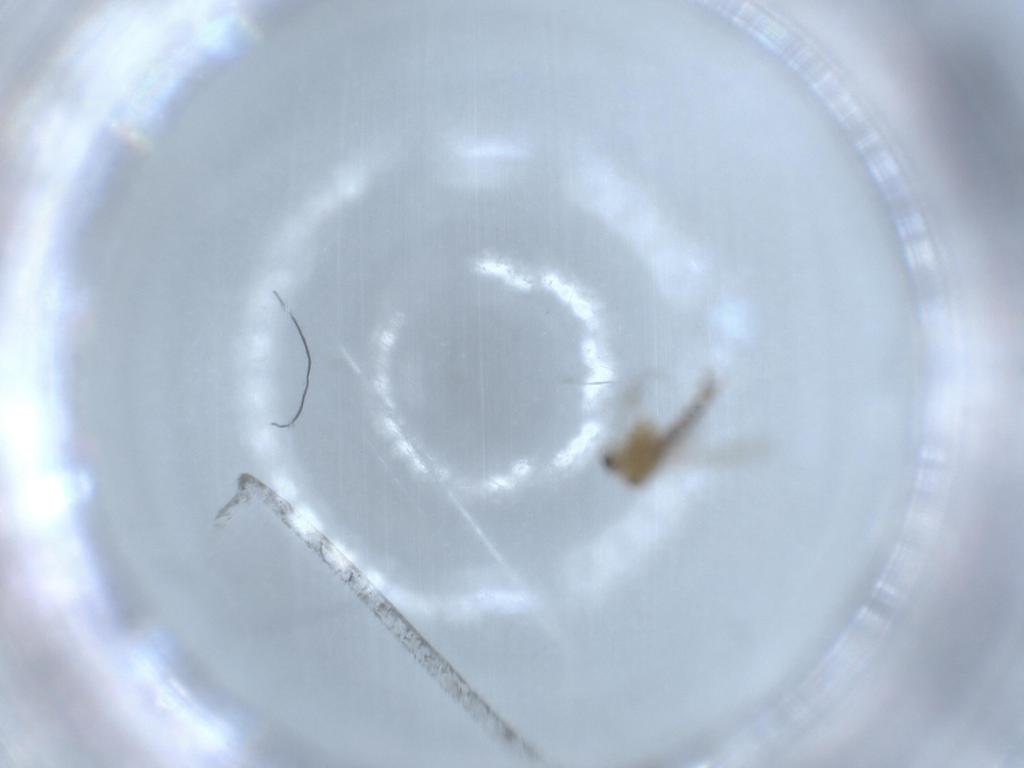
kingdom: Animalia
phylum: Arthropoda
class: Insecta
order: Diptera
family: Chironomidae
